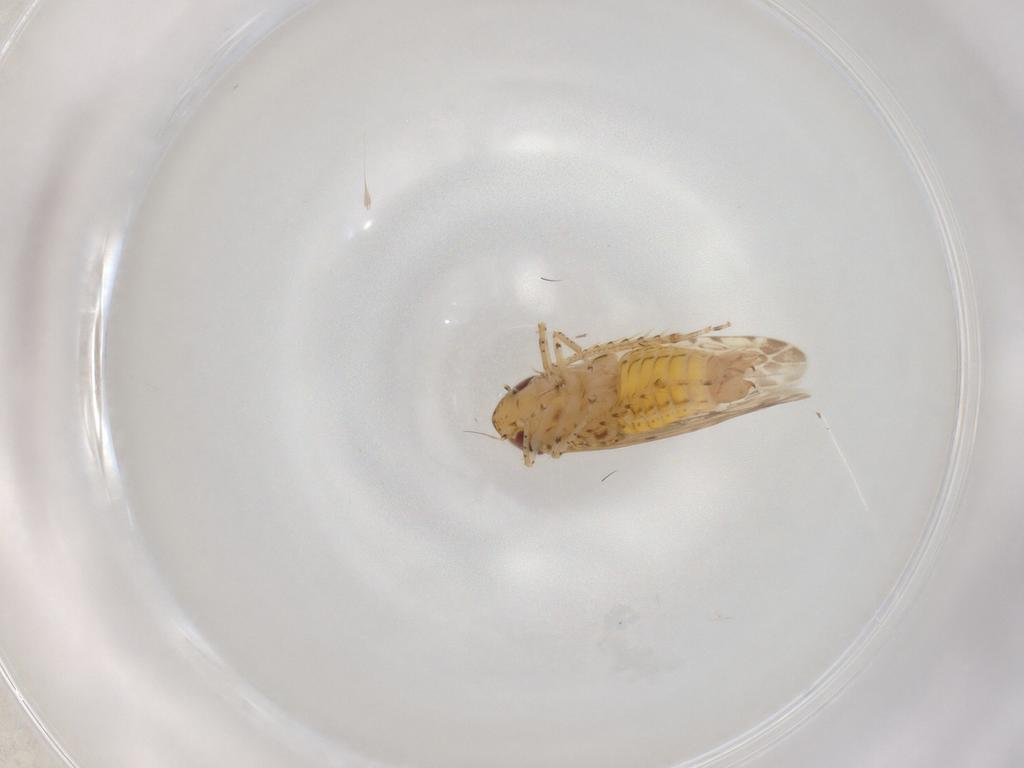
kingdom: Animalia
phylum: Arthropoda
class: Insecta
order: Hemiptera
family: Cicadellidae
